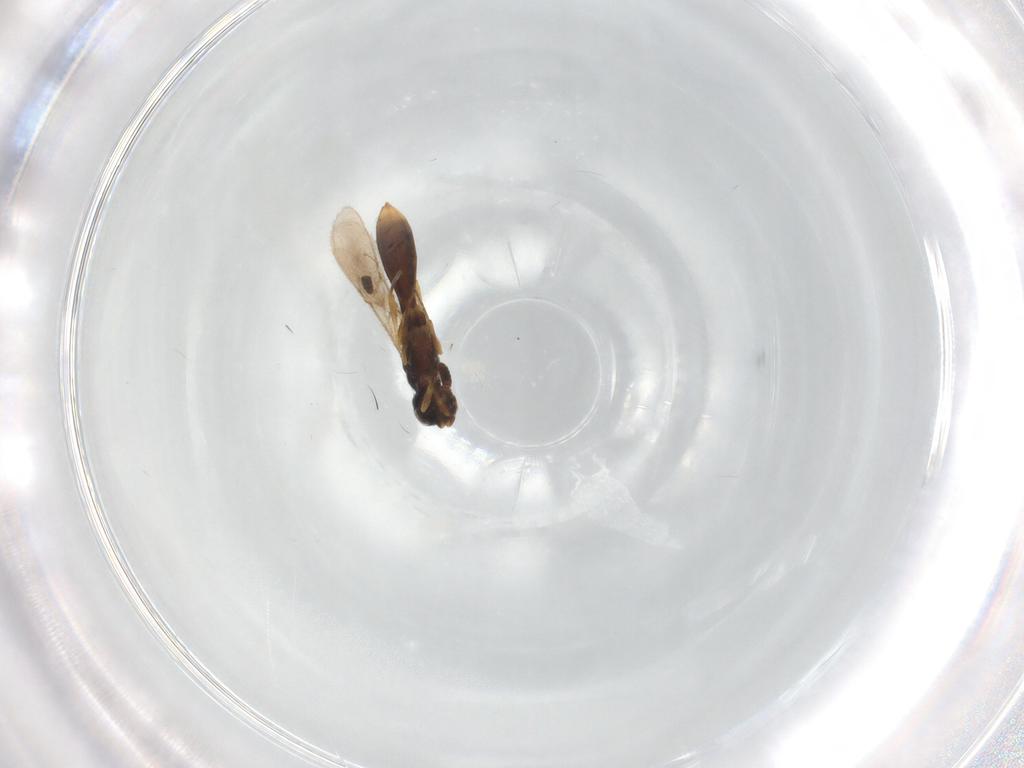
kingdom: Animalia
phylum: Arthropoda
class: Insecta
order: Hymenoptera
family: Scelionidae
